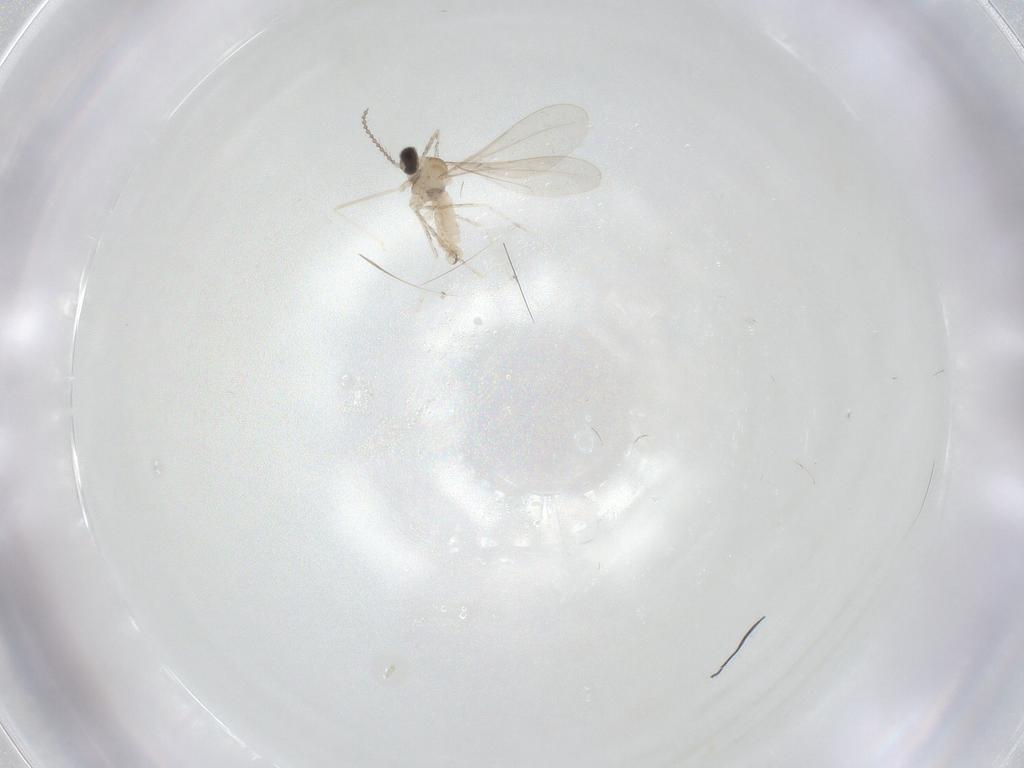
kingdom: Animalia
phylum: Arthropoda
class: Insecta
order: Diptera
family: Cecidomyiidae
